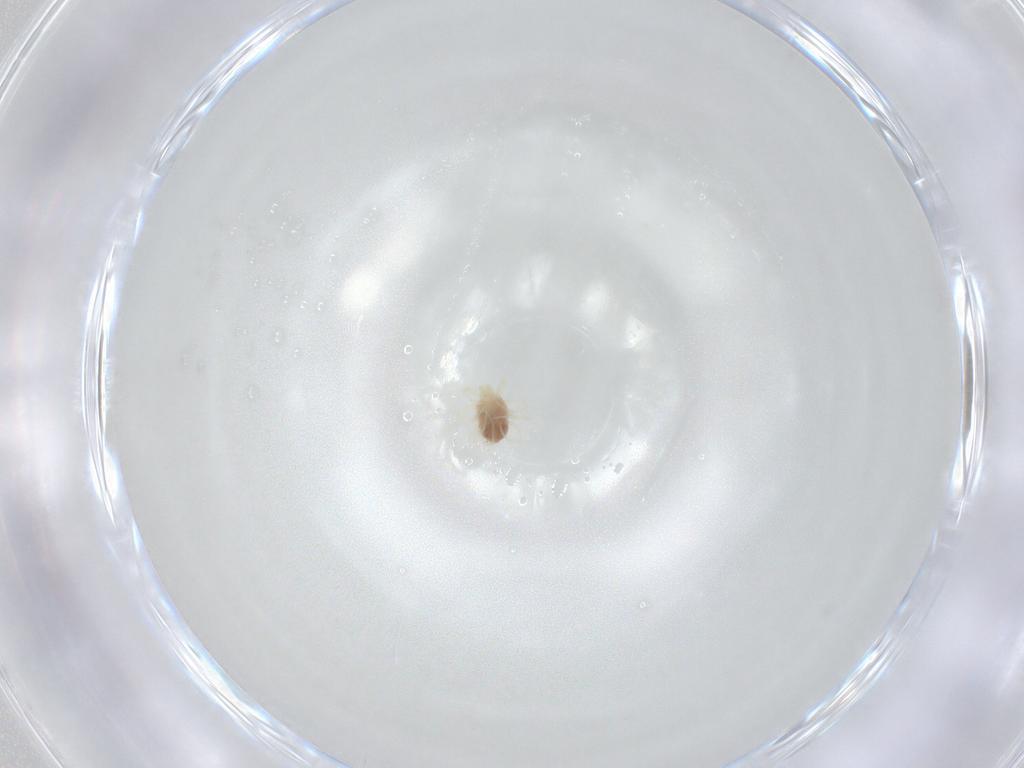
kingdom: Animalia
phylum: Arthropoda
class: Arachnida
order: Trombidiformes
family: Anystidae
